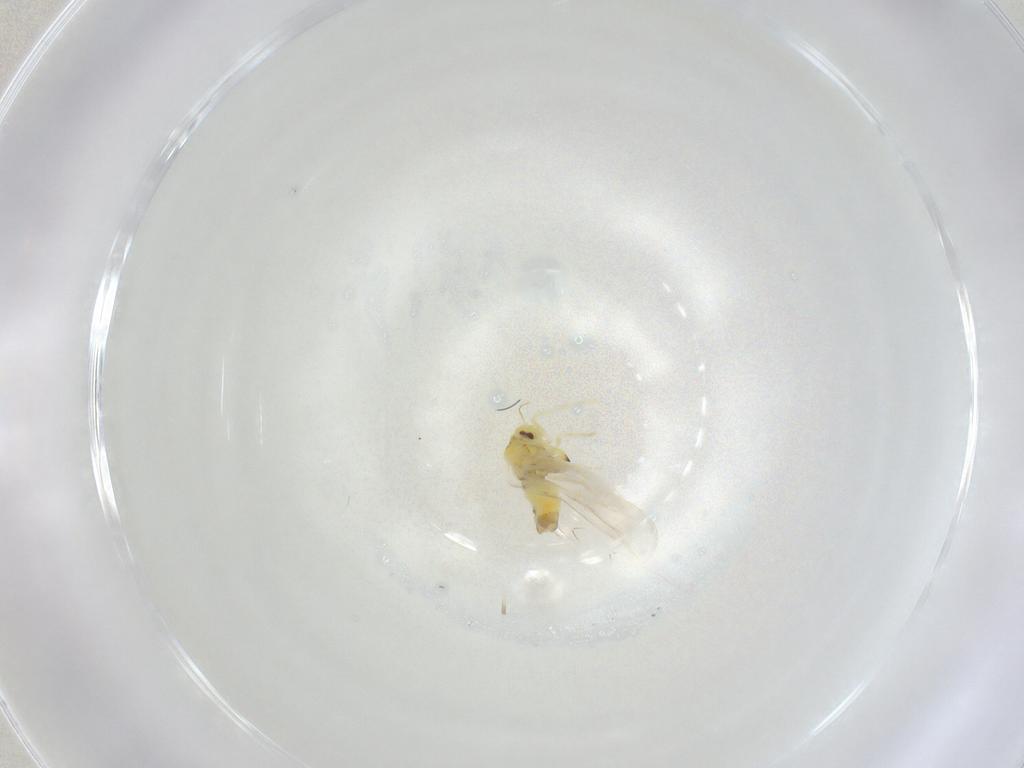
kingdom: Animalia
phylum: Arthropoda
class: Insecta
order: Hemiptera
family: Aleyrodidae
